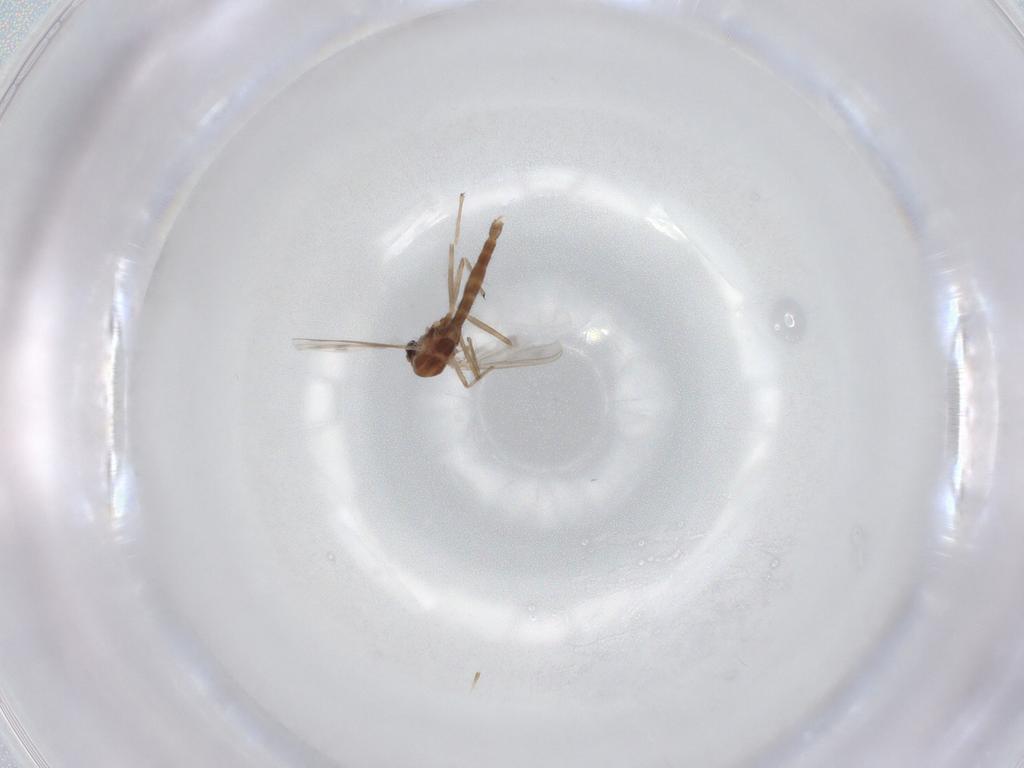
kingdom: Animalia
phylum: Arthropoda
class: Insecta
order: Diptera
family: Chironomidae
